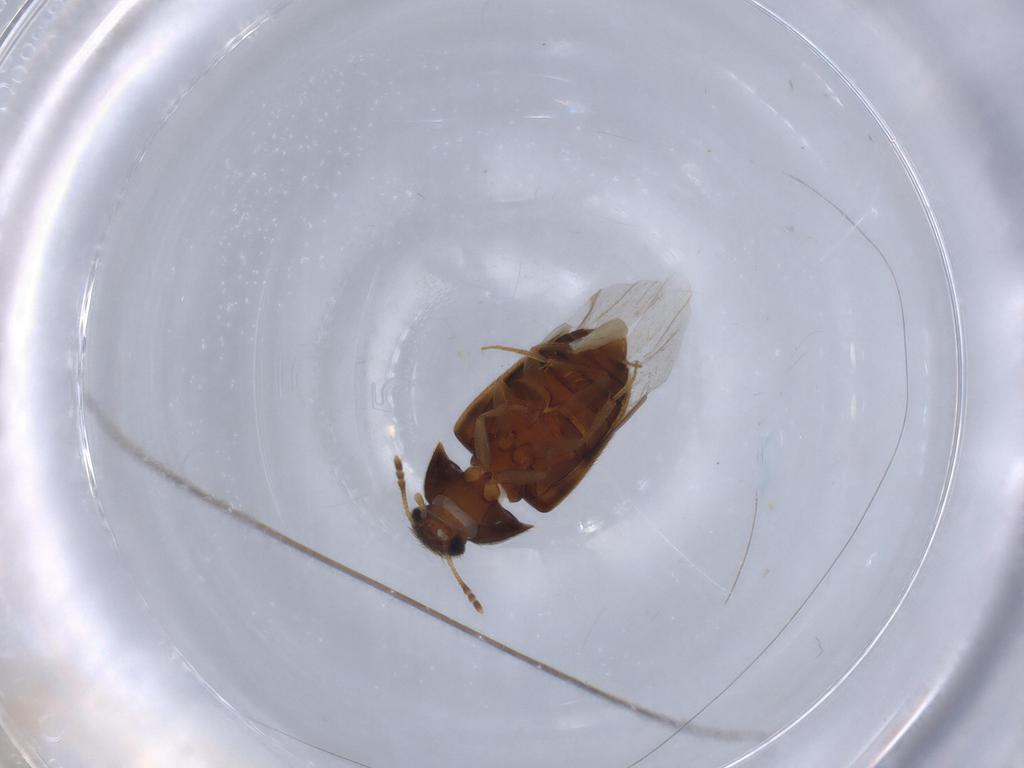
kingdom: Animalia
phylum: Arthropoda
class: Insecta
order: Coleoptera
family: Mycetophagidae
